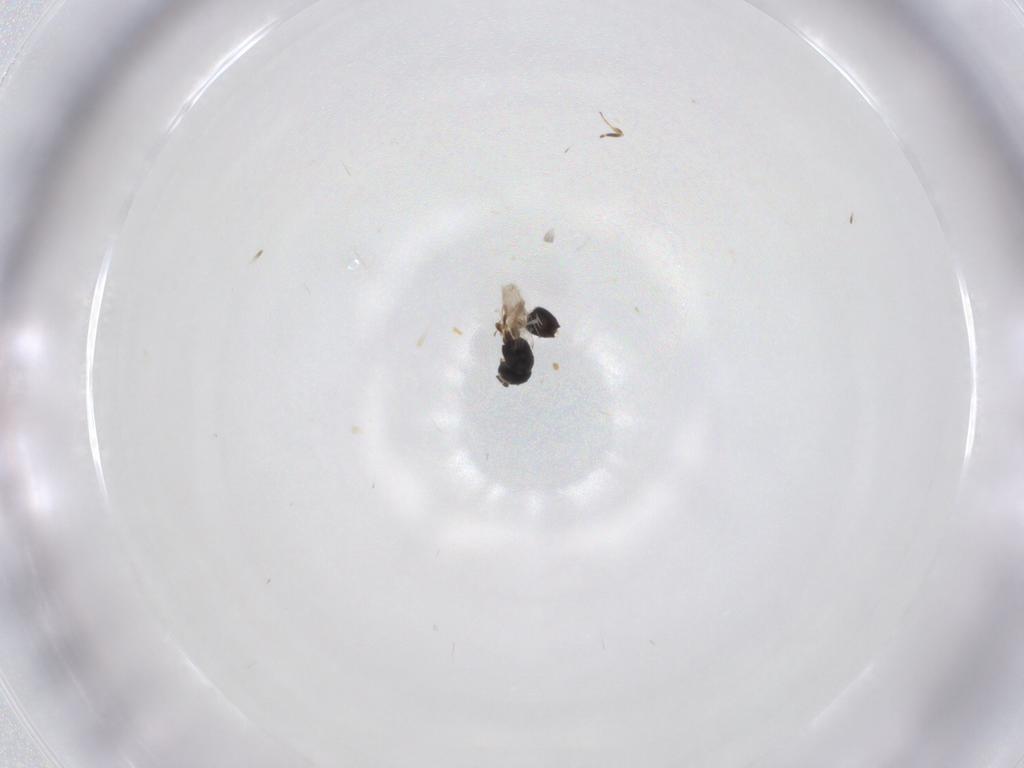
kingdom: Animalia
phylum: Arthropoda
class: Insecta
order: Hymenoptera
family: Scelionidae
